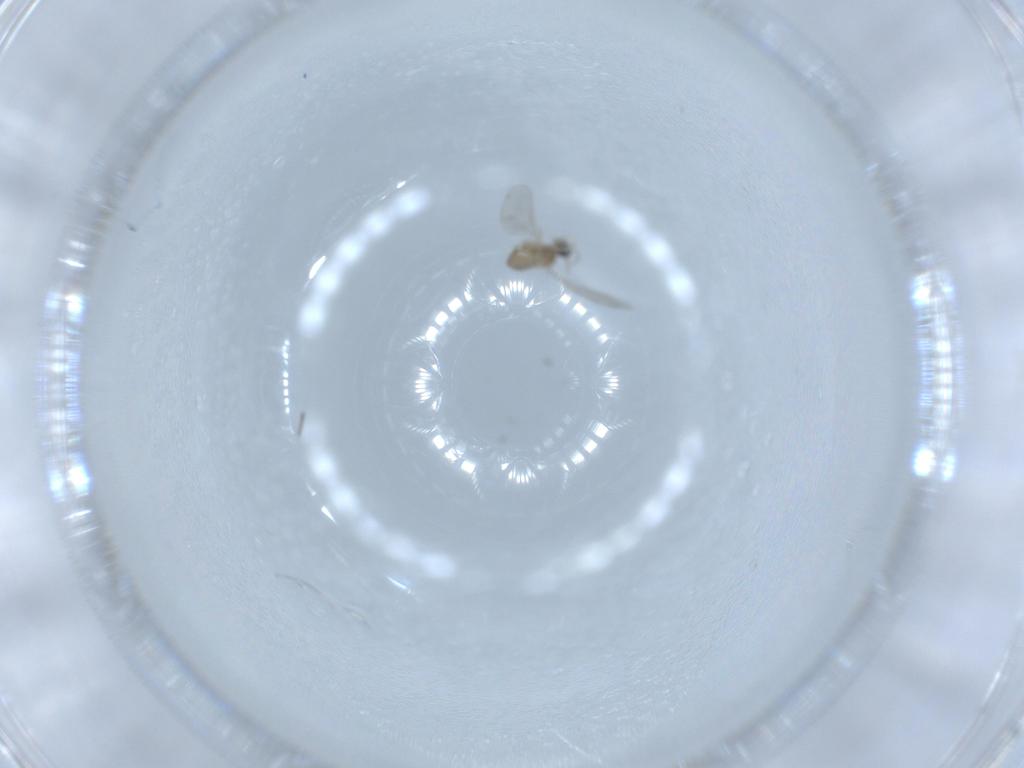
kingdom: Animalia
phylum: Arthropoda
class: Insecta
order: Diptera
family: Cecidomyiidae
